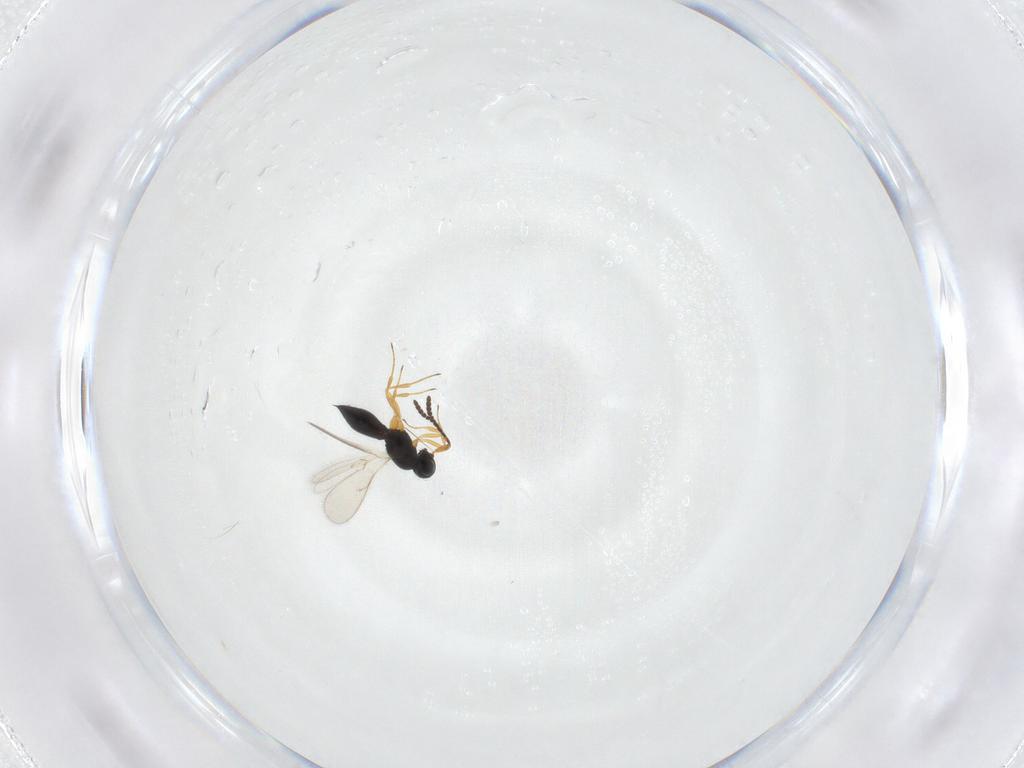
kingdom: Animalia
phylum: Arthropoda
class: Insecta
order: Hymenoptera
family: Scelionidae
